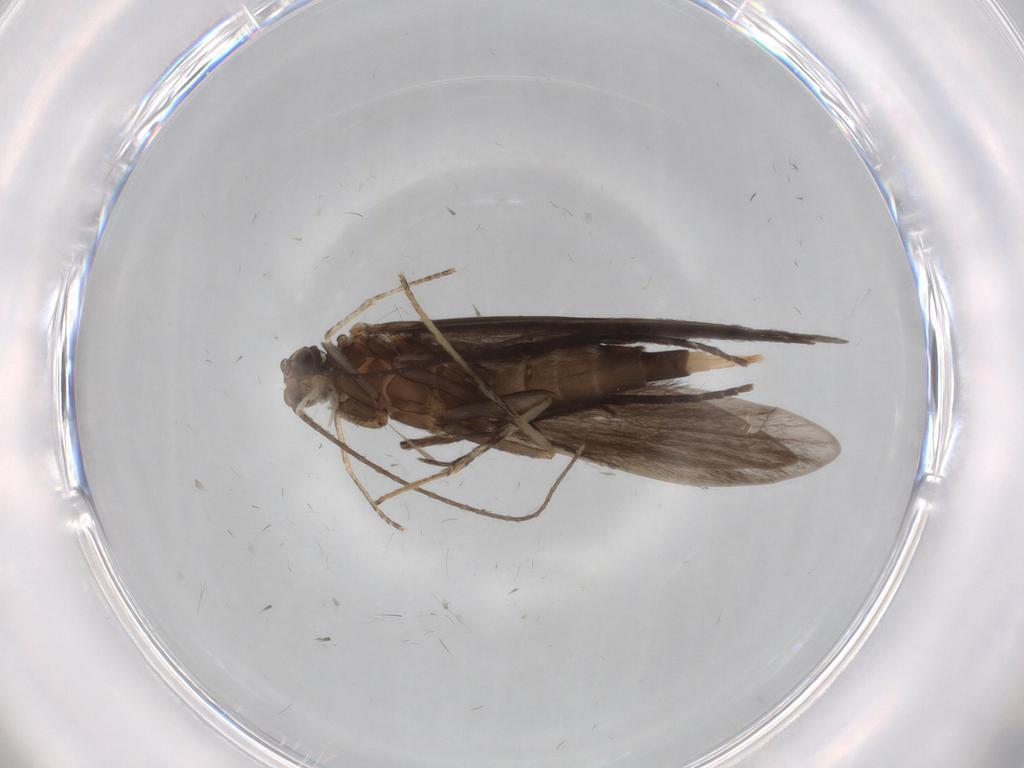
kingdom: Animalia
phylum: Arthropoda
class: Insecta
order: Trichoptera
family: Xiphocentronidae
